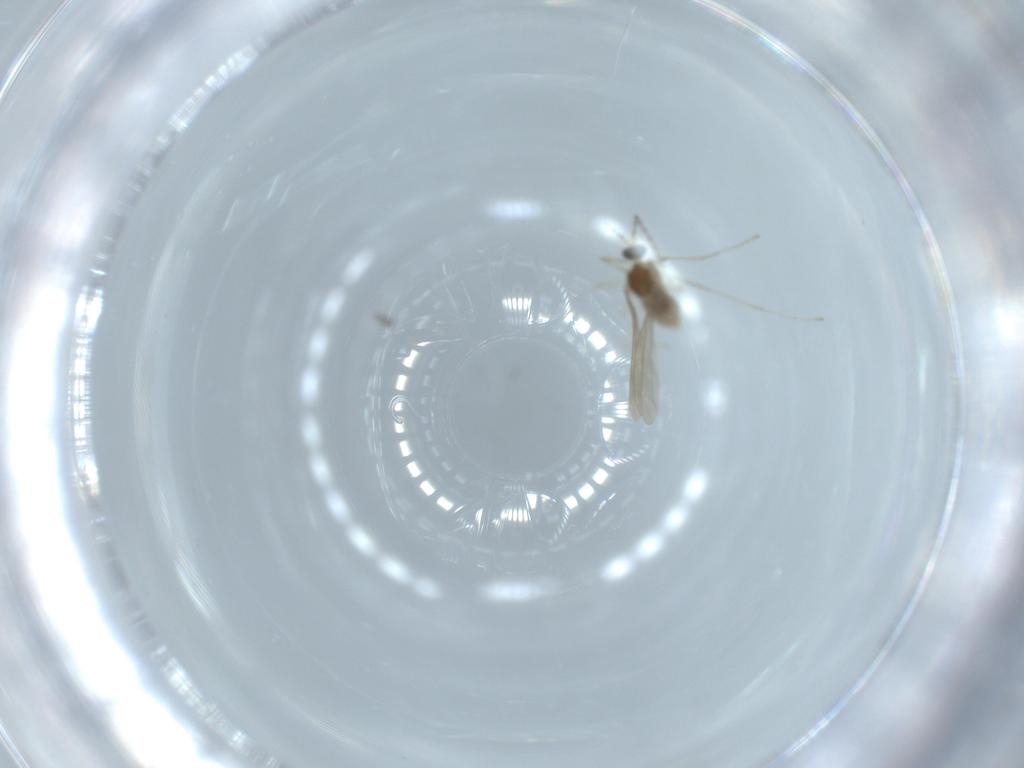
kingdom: Animalia
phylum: Arthropoda
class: Insecta
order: Diptera
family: Cecidomyiidae
